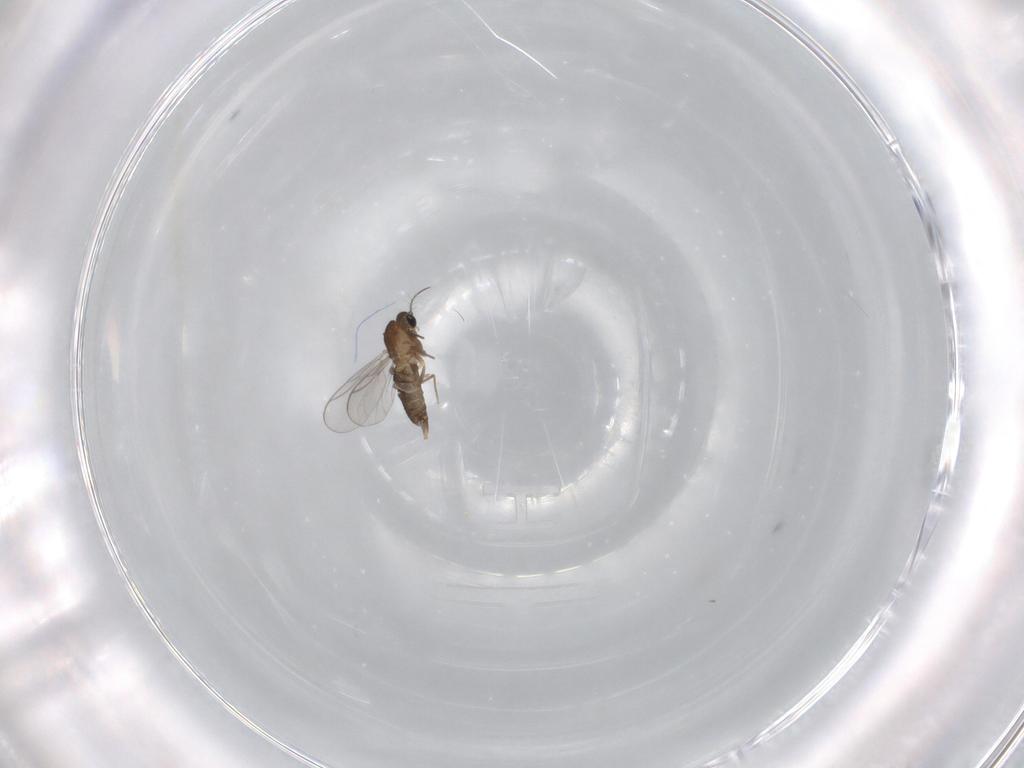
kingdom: Animalia
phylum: Arthropoda
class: Insecta
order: Diptera
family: Chironomidae
